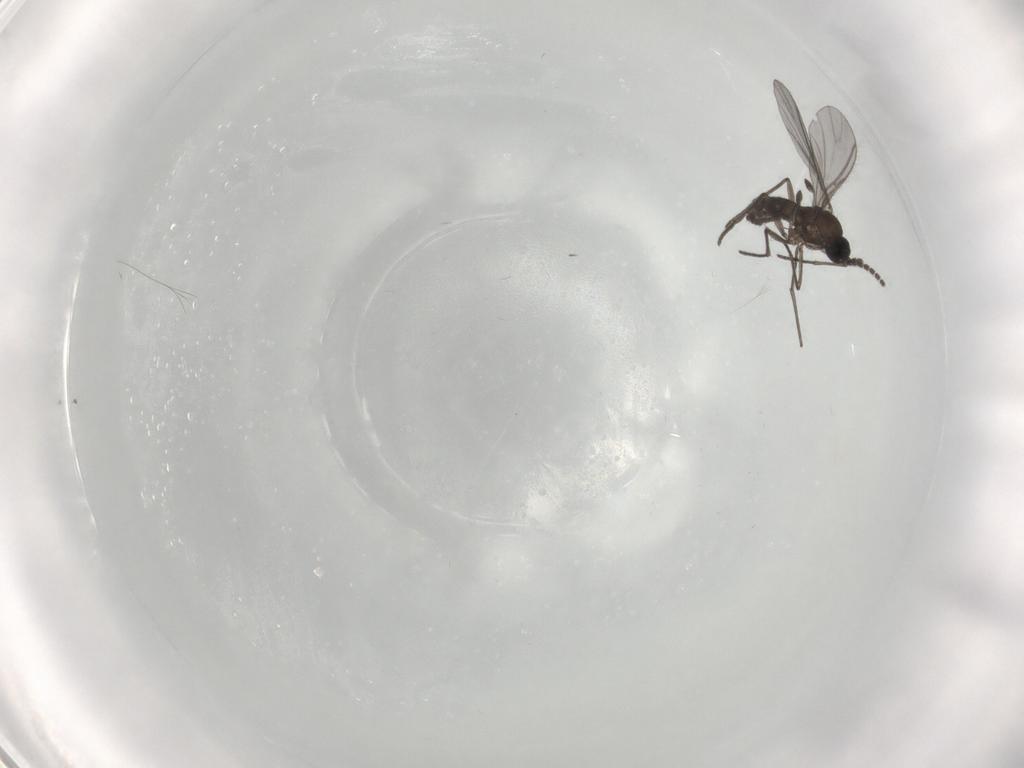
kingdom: Animalia
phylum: Arthropoda
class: Insecta
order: Diptera
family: Sciaridae
